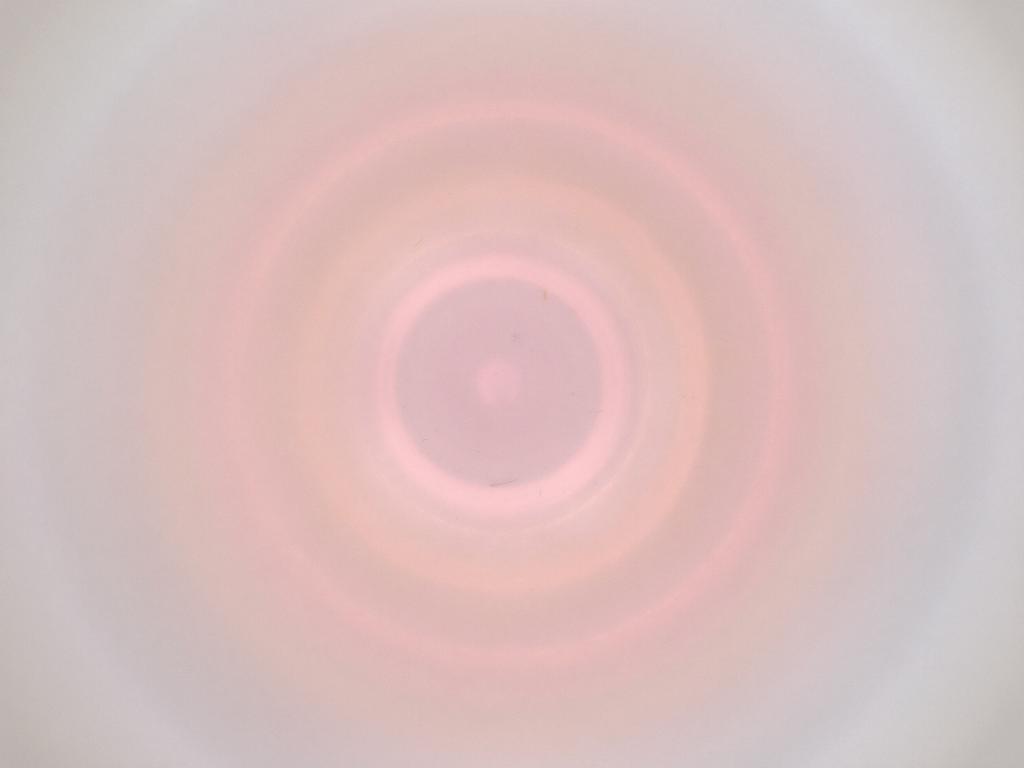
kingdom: Animalia
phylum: Arthropoda
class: Insecta
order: Diptera
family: Cecidomyiidae
